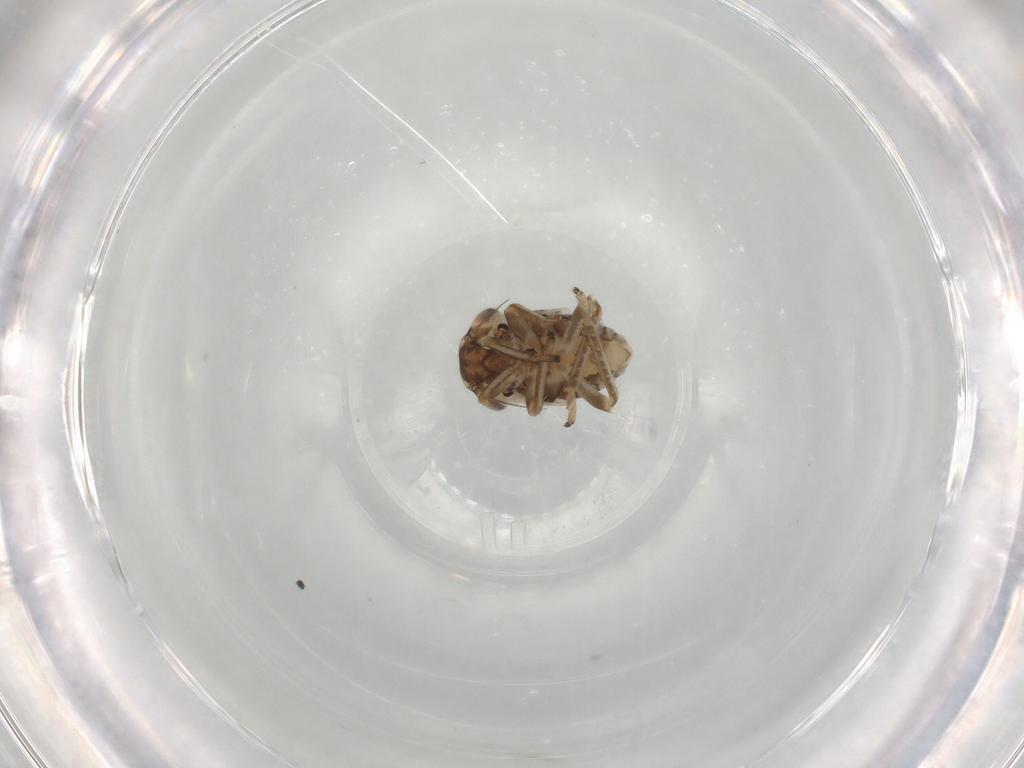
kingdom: Animalia
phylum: Arthropoda
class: Insecta
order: Hemiptera
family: Cicadellidae
